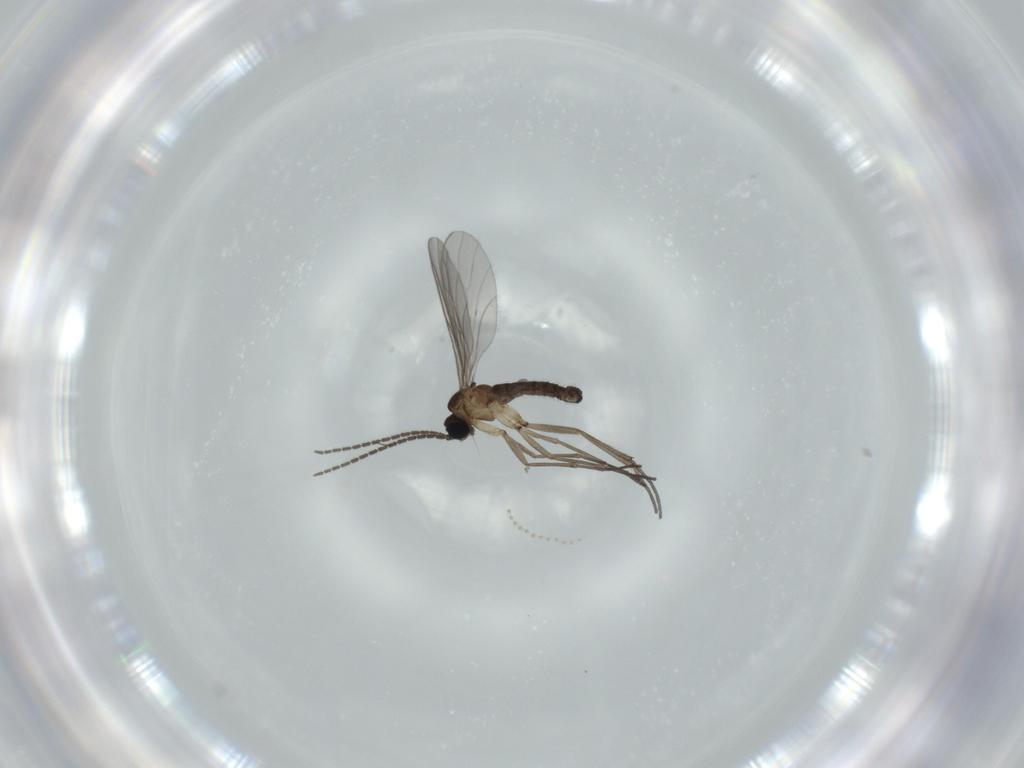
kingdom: Animalia
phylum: Arthropoda
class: Insecta
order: Diptera
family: Sciaridae
